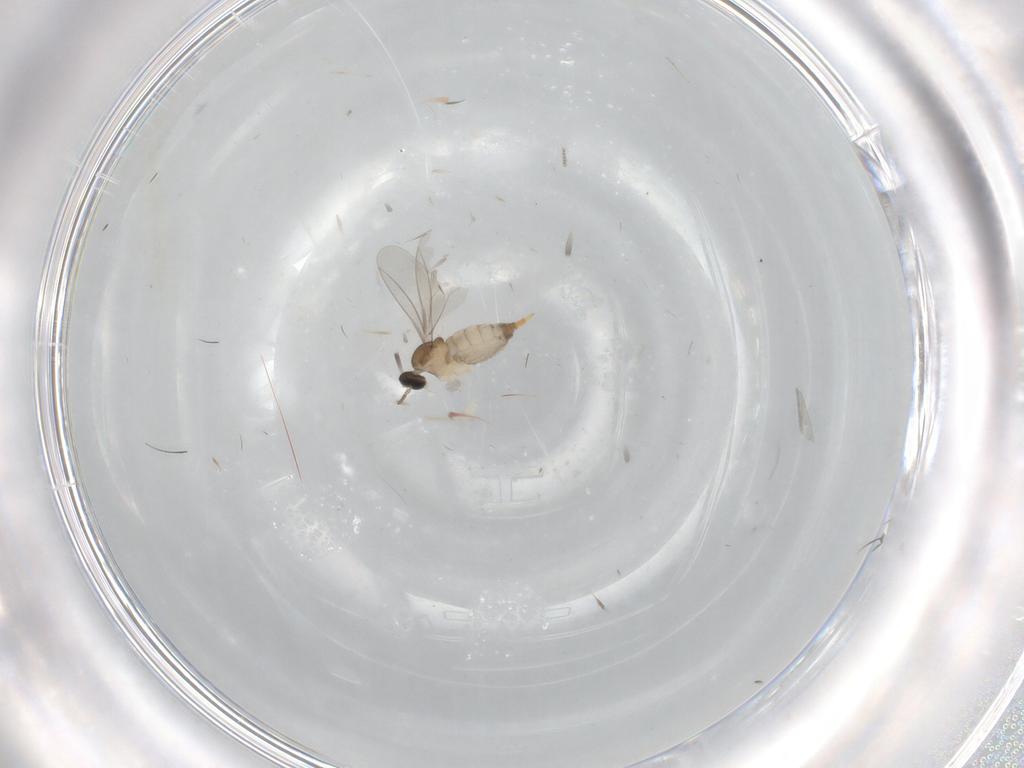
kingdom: Animalia
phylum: Arthropoda
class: Insecta
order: Diptera
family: Cecidomyiidae
